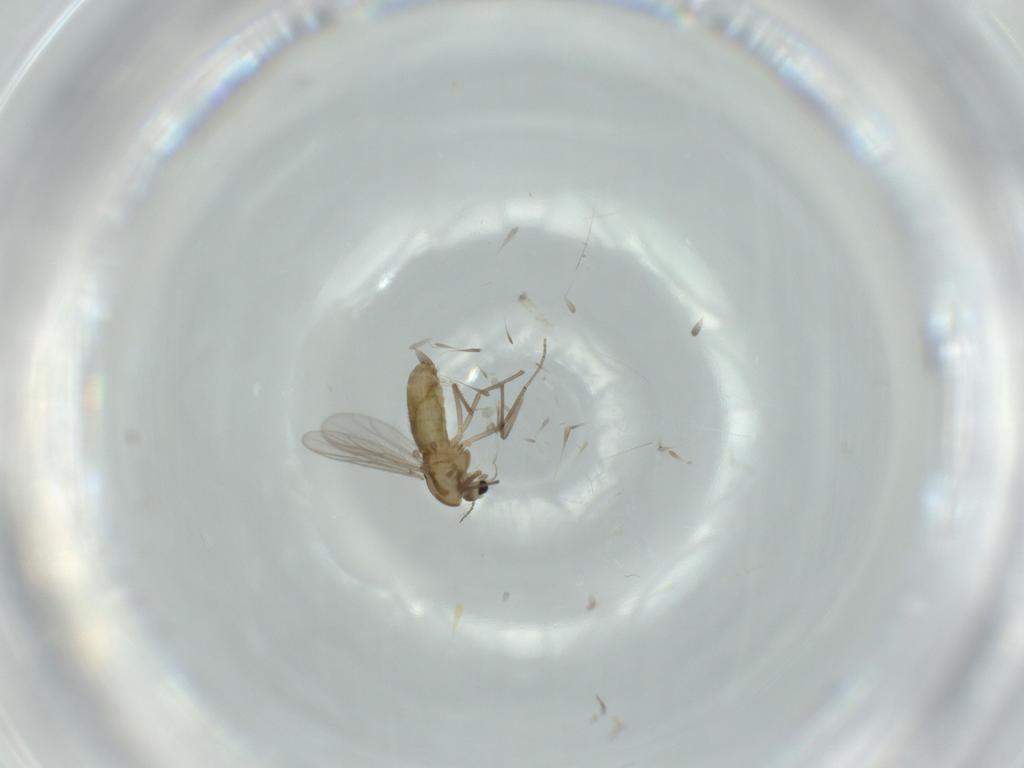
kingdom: Animalia
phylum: Arthropoda
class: Insecta
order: Diptera
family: Chironomidae
